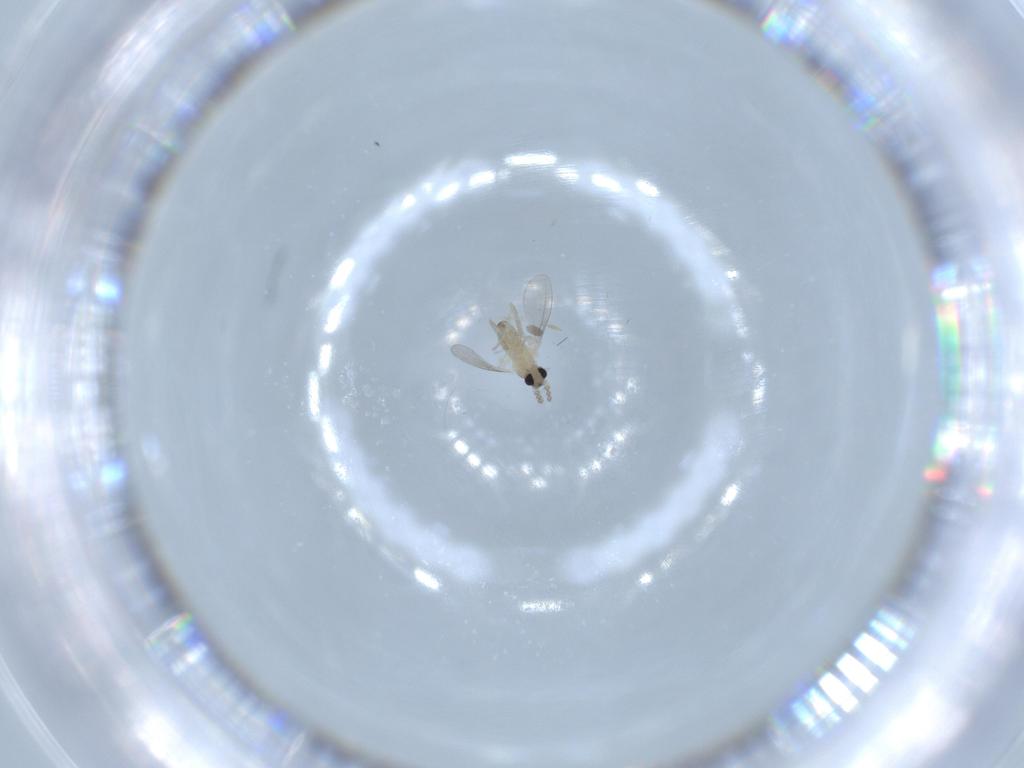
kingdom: Animalia
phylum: Arthropoda
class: Insecta
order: Diptera
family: Cecidomyiidae
